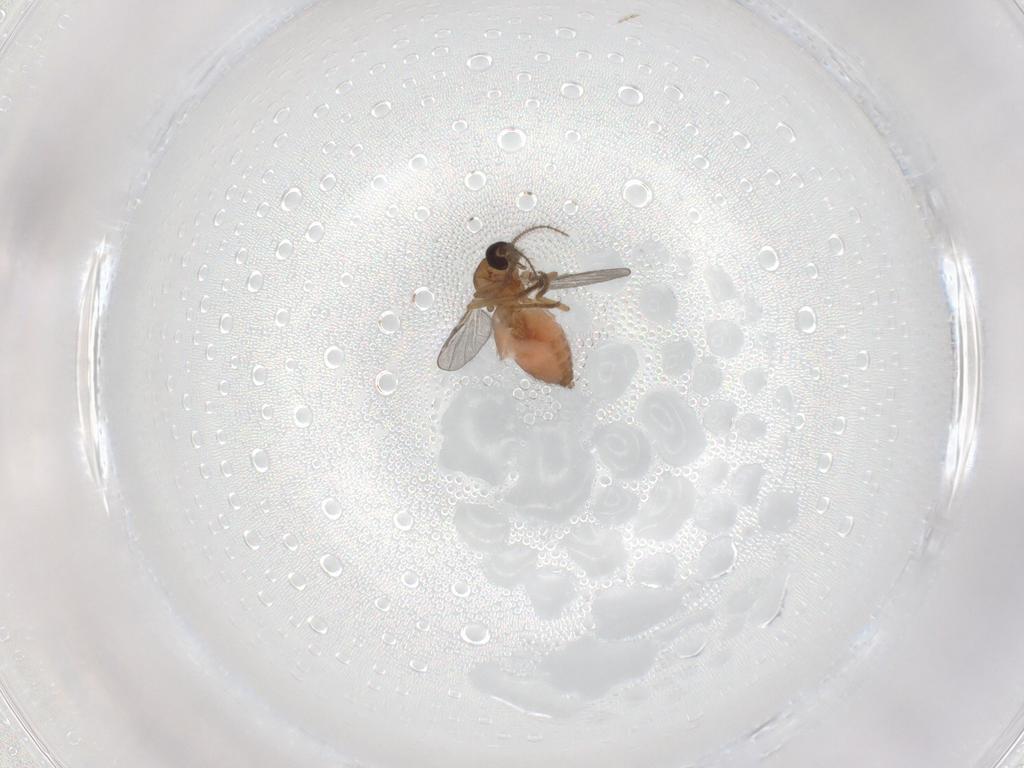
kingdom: Animalia
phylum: Arthropoda
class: Insecta
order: Diptera
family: Ceratopogonidae
